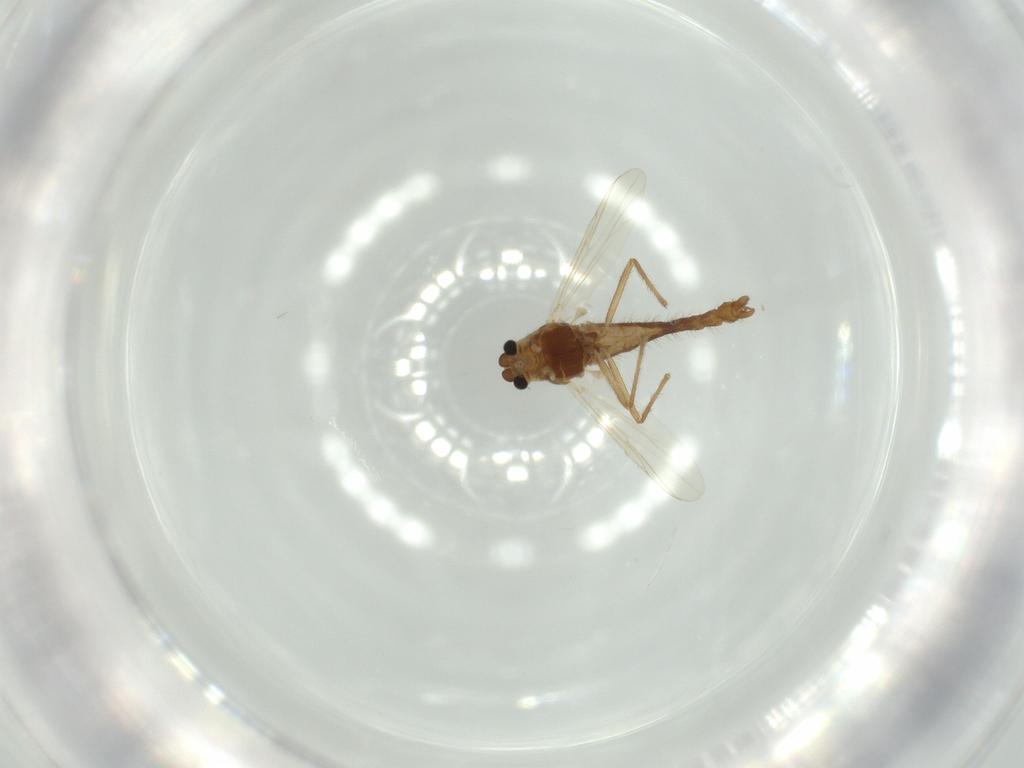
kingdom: Animalia
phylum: Arthropoda
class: Insecta
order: Diptera
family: Chironomidae
